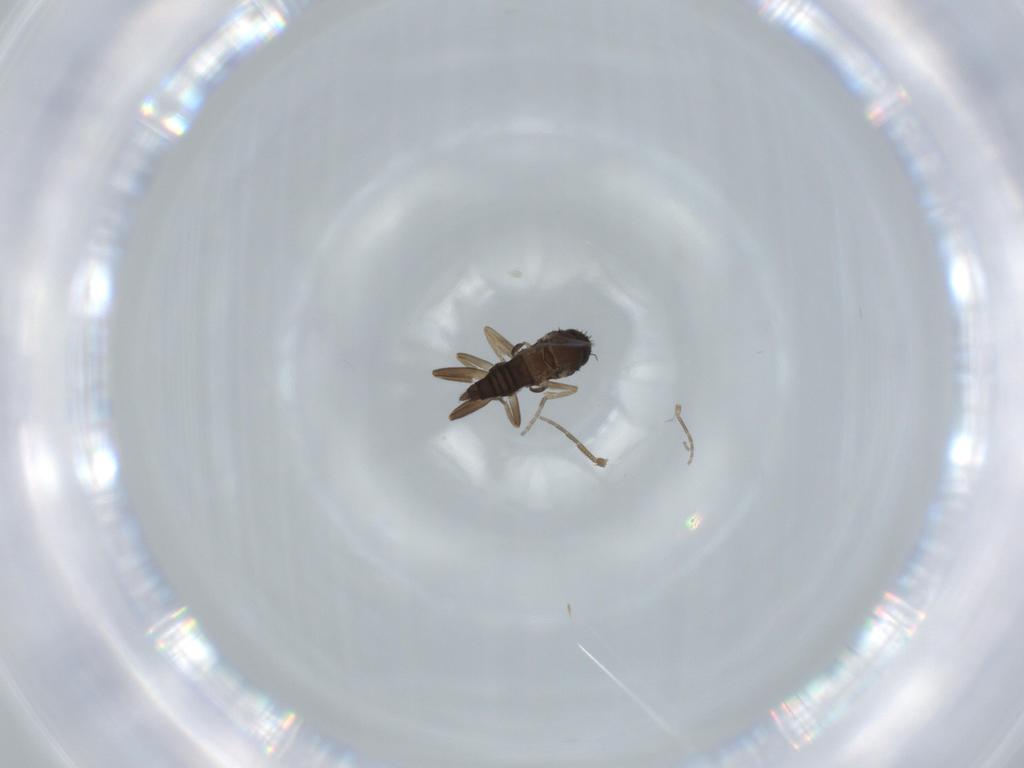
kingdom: Animalia
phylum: Arthropoda
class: Insecta
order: Diptera
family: Phoridae
